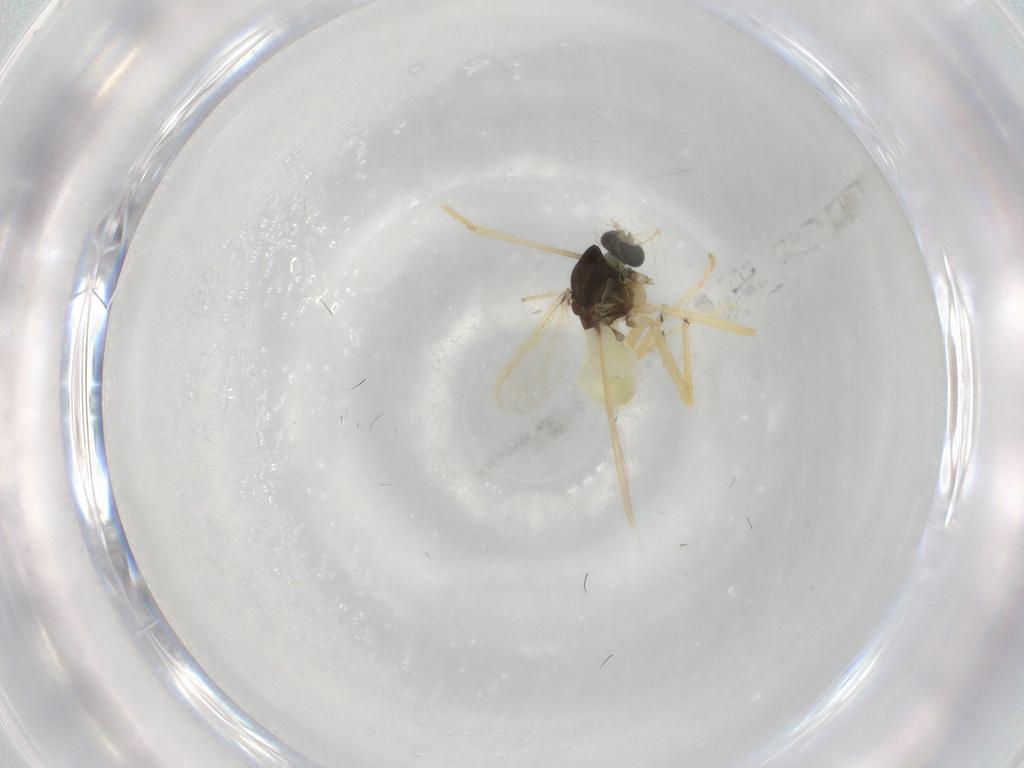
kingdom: Animalia
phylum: Arthropoda
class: Insecta
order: Diptera
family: Chironomidae
